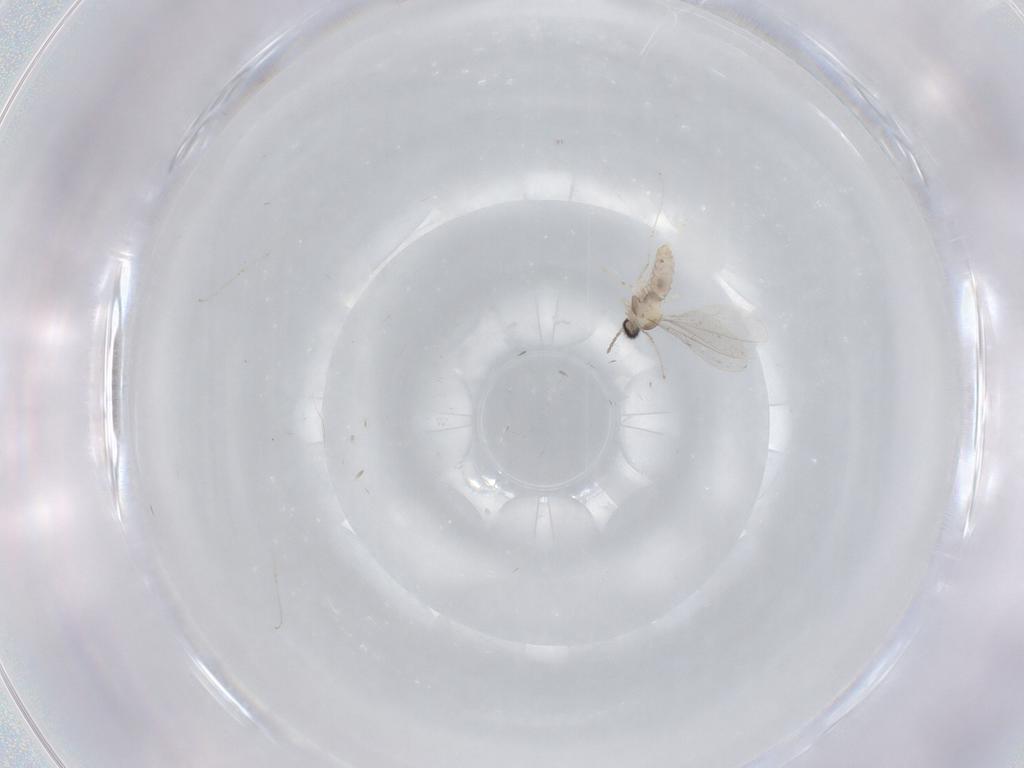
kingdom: Animalia
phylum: Arthropoda
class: Insecta
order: Diptera
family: Cecidomyiidae
